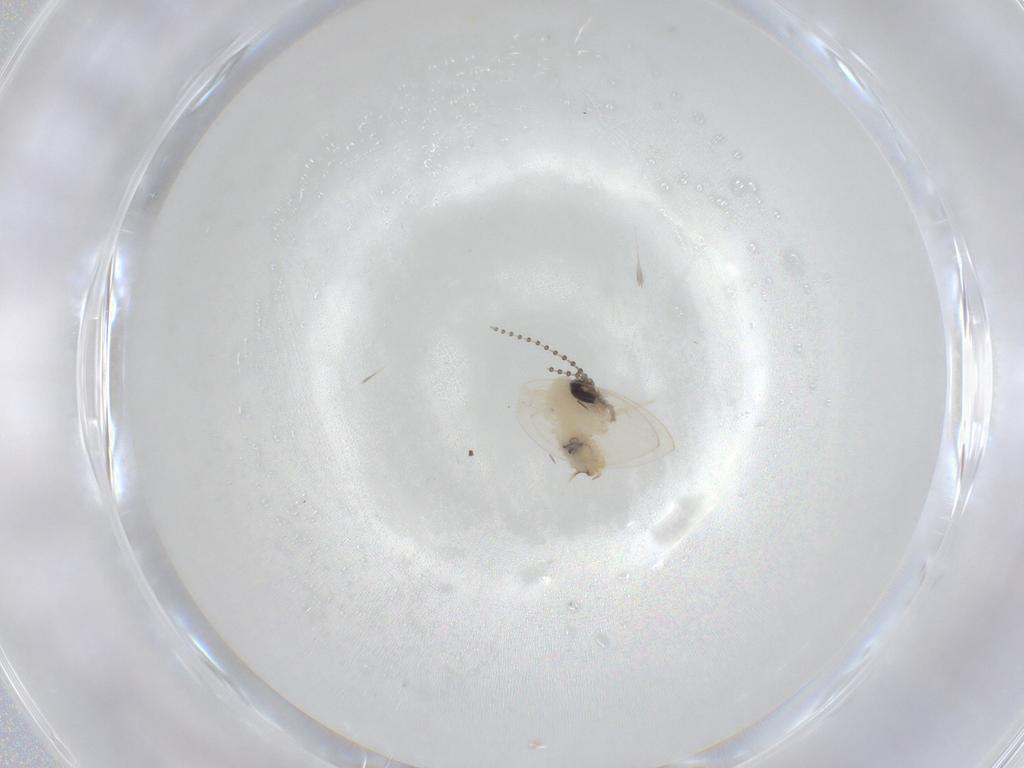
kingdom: Animalia
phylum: Arthropoda
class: Insecta
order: Diptera
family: Psychodidae
